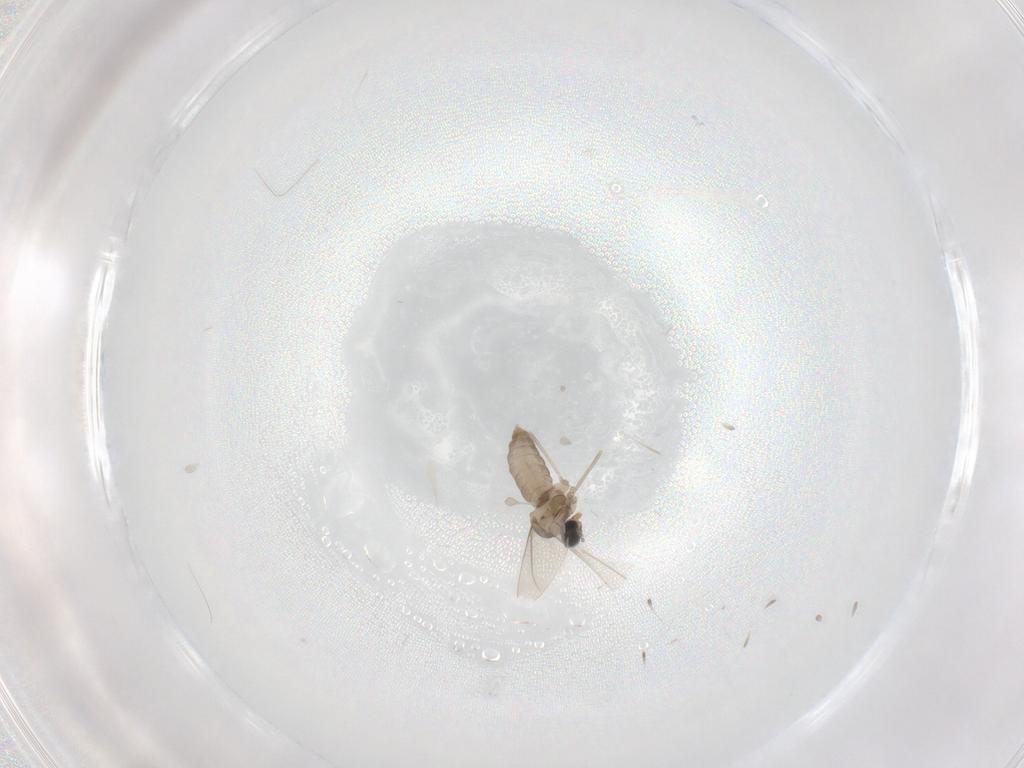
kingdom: Animalia
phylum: Arthropoda
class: Insecta
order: Diptera
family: Cecidomyiidae
